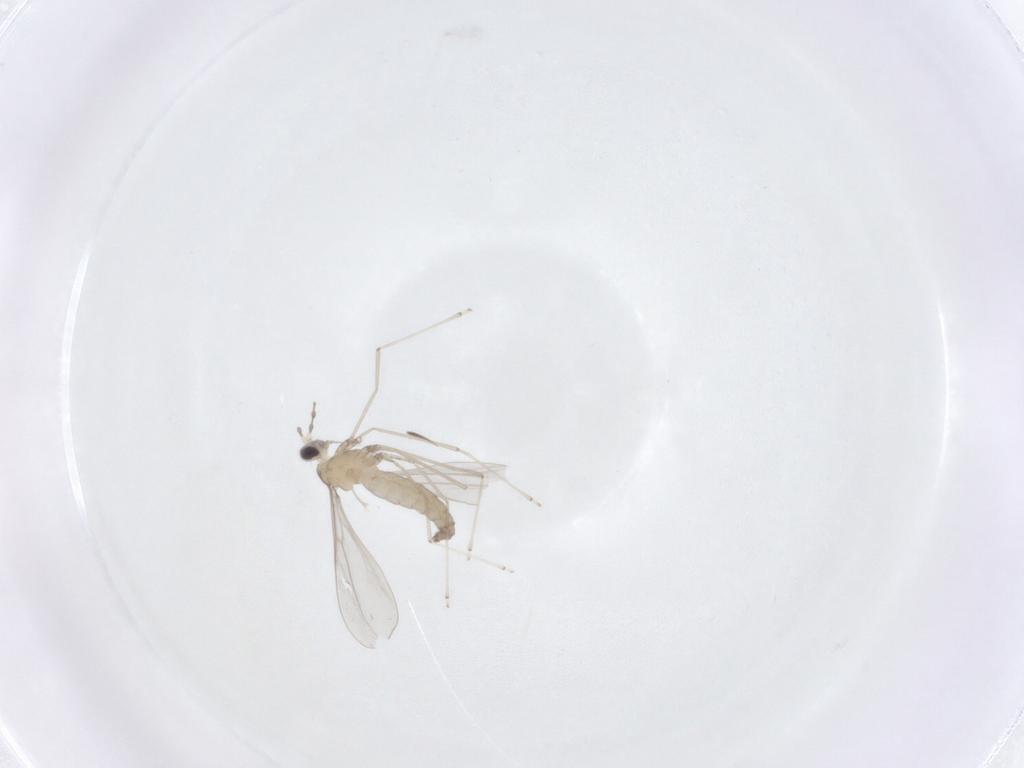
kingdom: Animalia
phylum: Arthropoda
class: Insecta
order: Diptera
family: Cecidomyiidae
